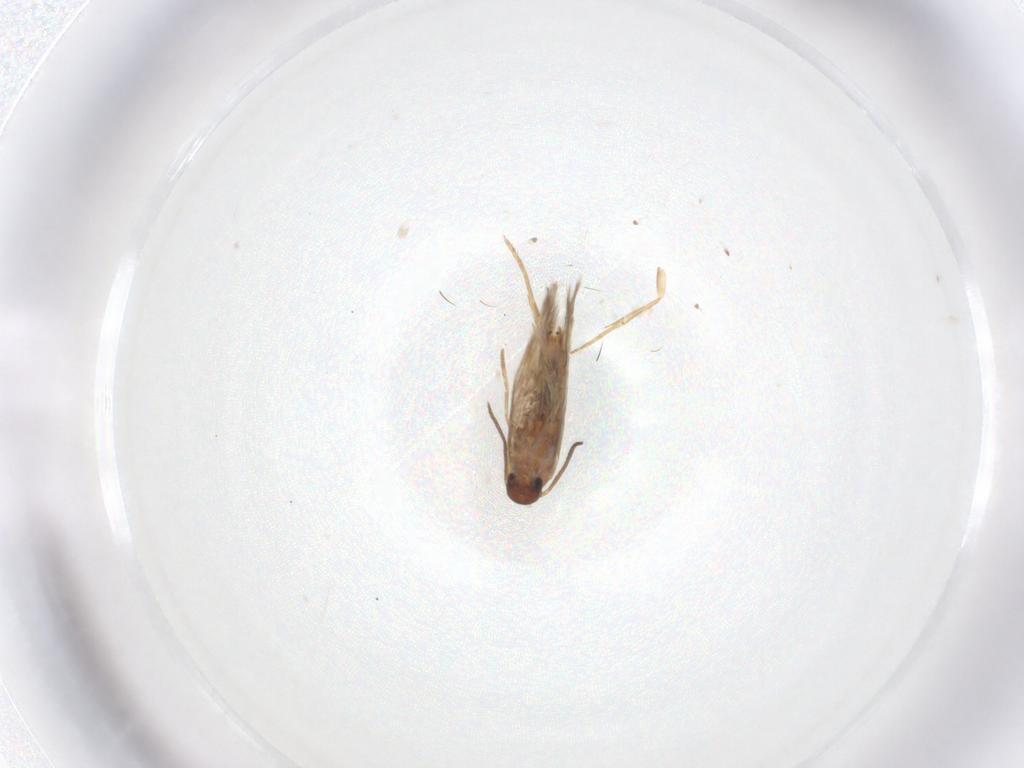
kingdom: Animalia
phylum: Arthropoda
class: Insecta
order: Lepidoptera
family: Heliozelidae
